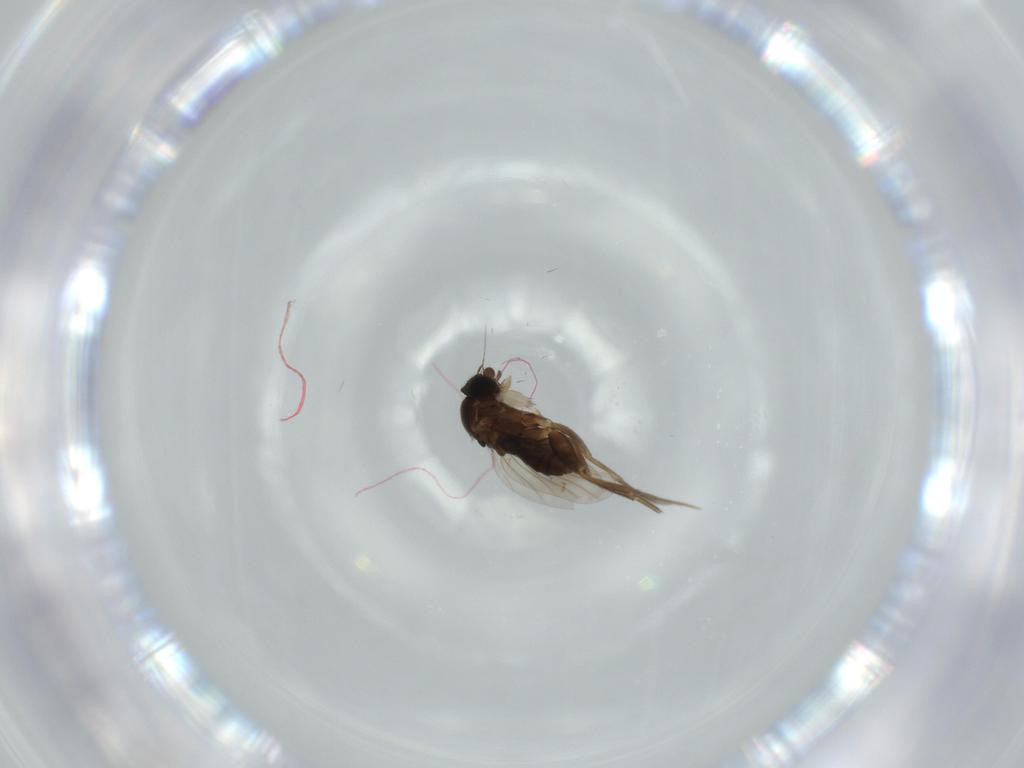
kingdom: Animalia
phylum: Arthropoda
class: Insecta
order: Diptera
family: Phoridae
